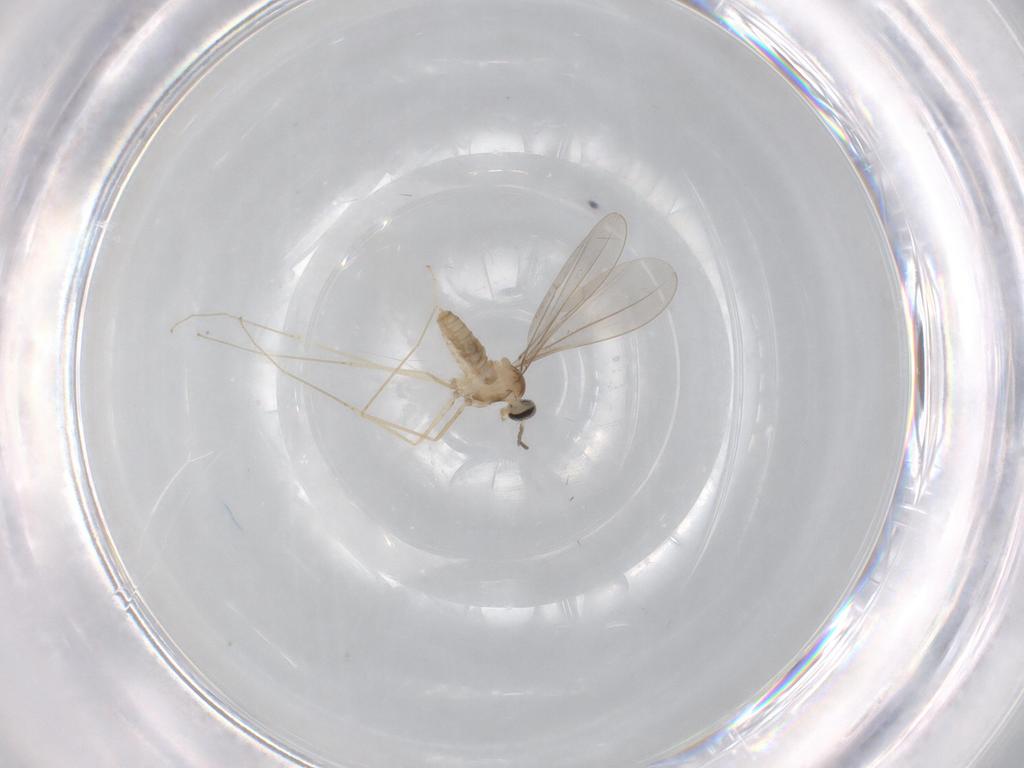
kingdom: Animalia
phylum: Arthropoda
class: Insecta
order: Diptera
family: Cecidomyiidae
